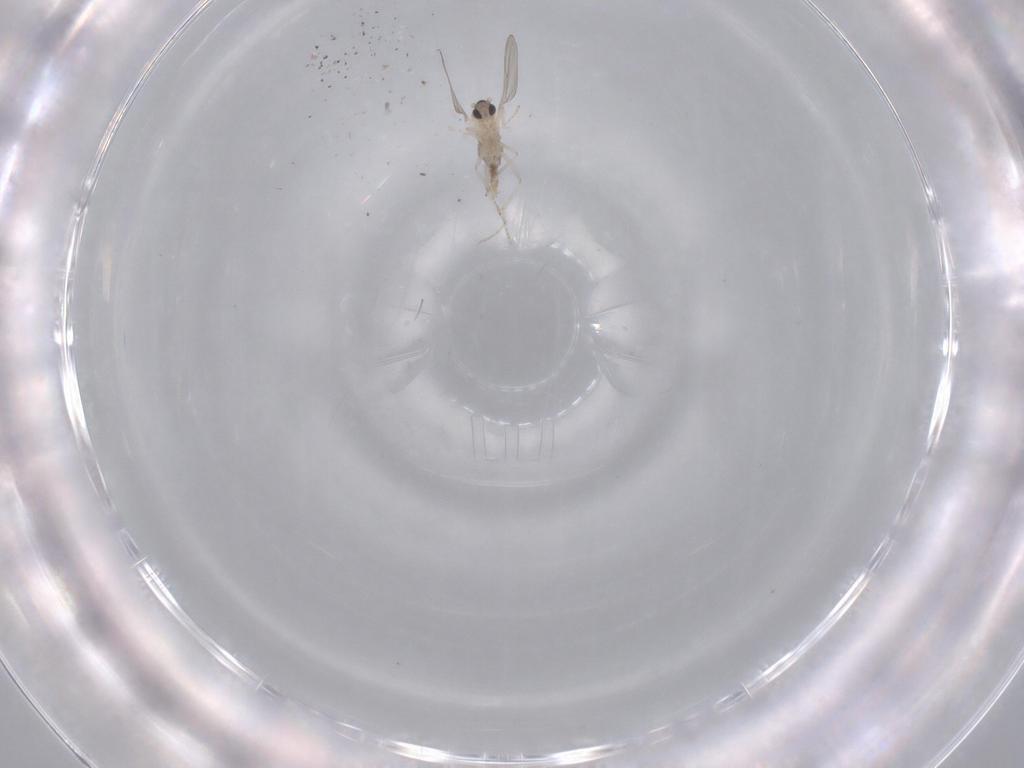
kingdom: Animalia
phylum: Arthropoda
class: Insecta
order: Diptera
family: Cecidomyiidae
